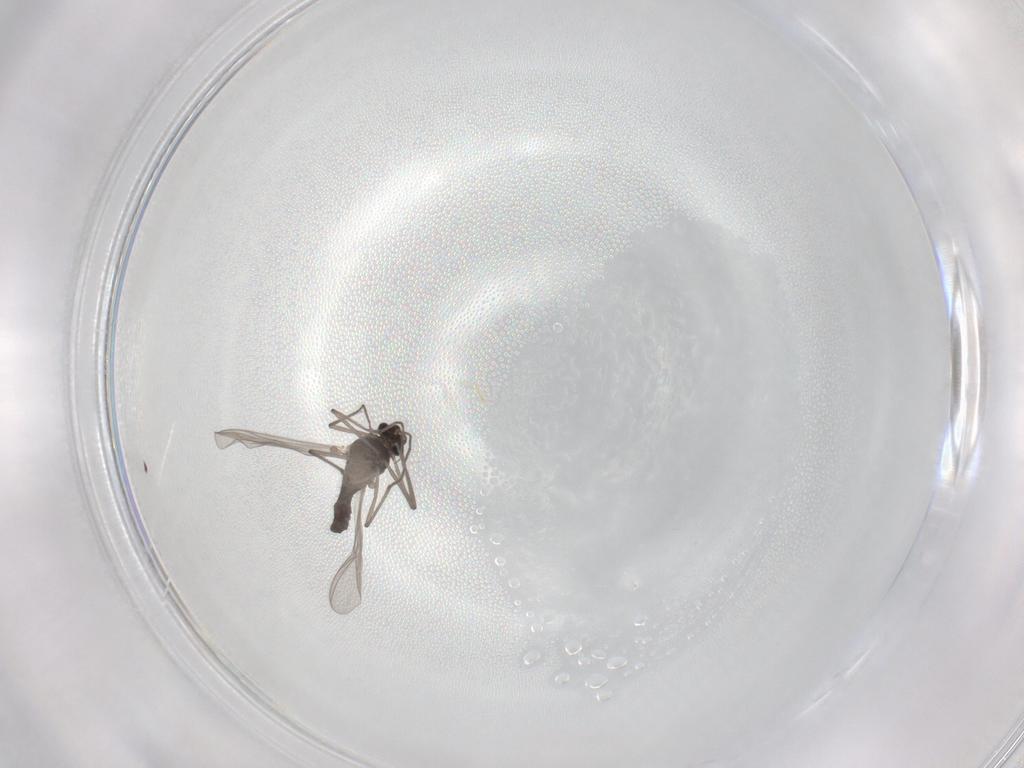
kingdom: Animalia
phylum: Arthropoda
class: Insecta
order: Diptera
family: Chironomidae
